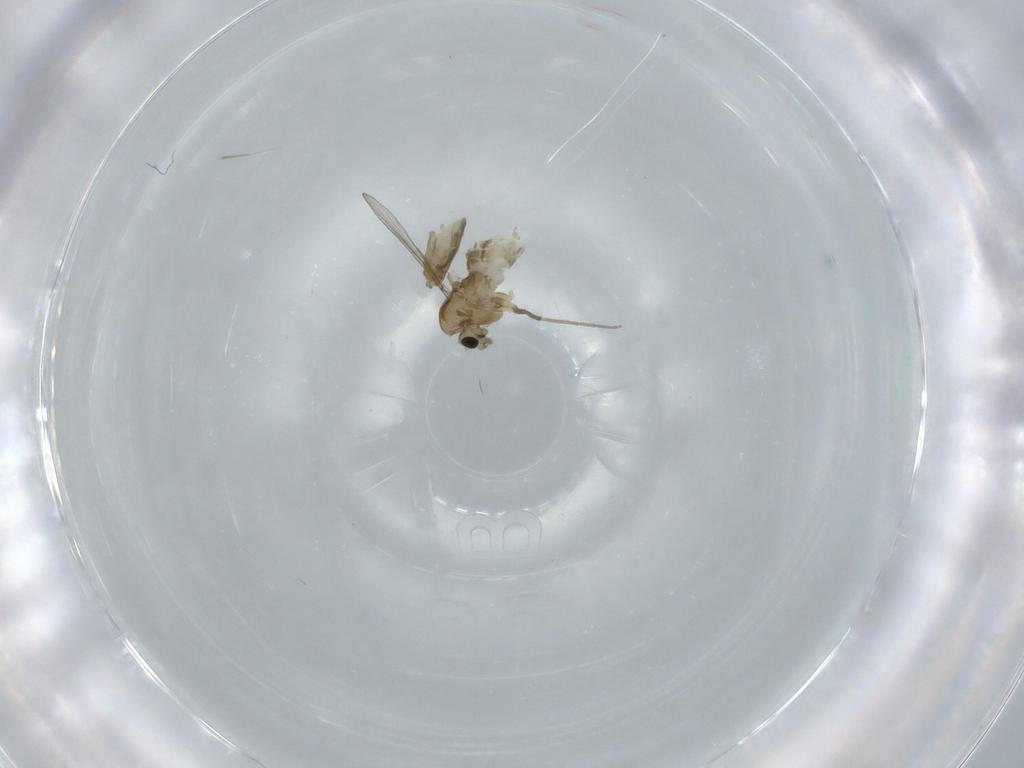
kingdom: Animalia
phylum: Arthropoda
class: Insecta
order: Diptera
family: Chironomidae
